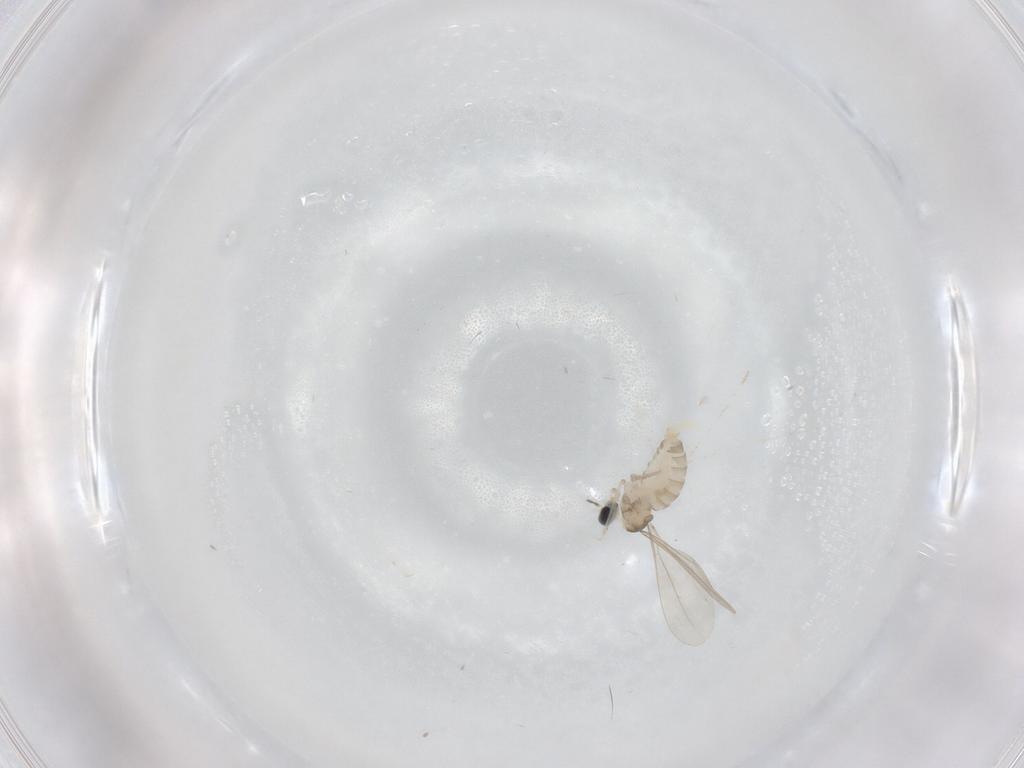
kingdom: Animalia
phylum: Arthropoda
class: Insecta
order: Diptera
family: Cecidomyiidae
